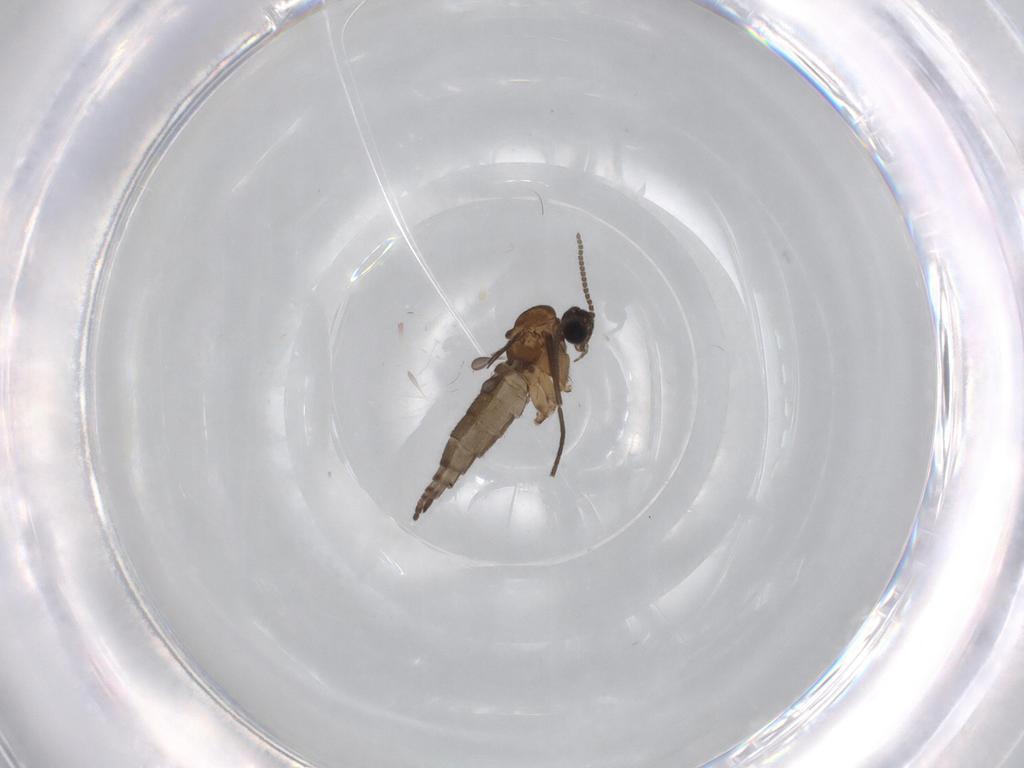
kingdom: Animalia
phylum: Arthropoda
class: Insecta
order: Diptera
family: Sciaridae
